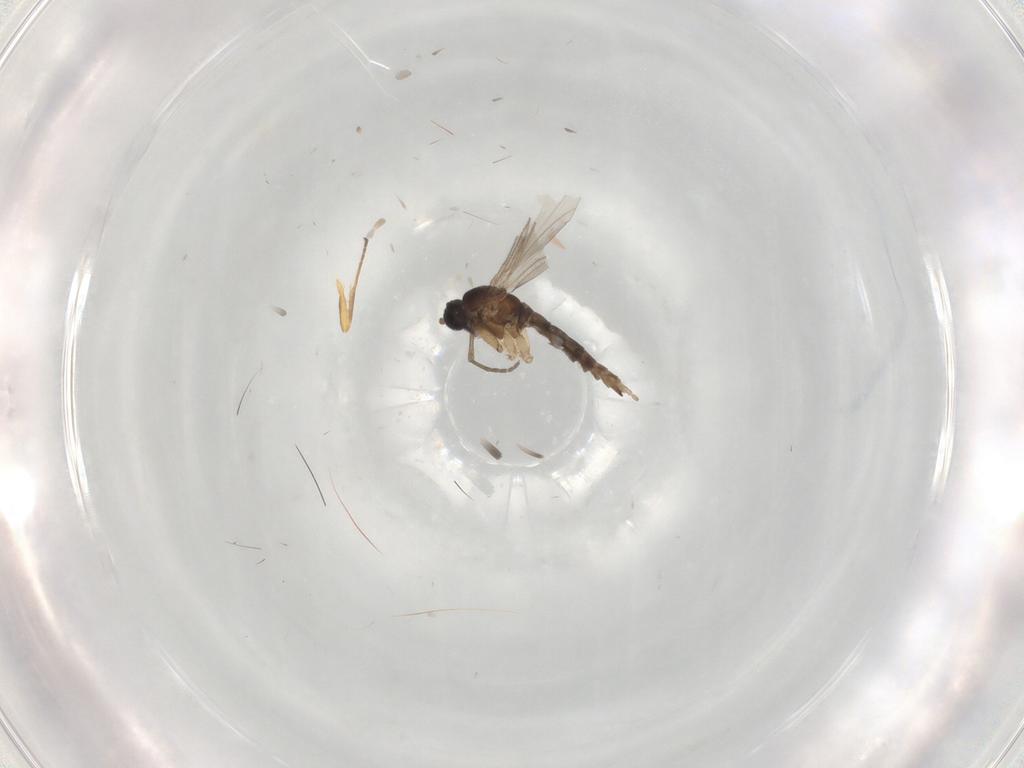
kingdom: Animalia
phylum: Arthropoda
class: Insecta
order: Diptera
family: Sciaridae
